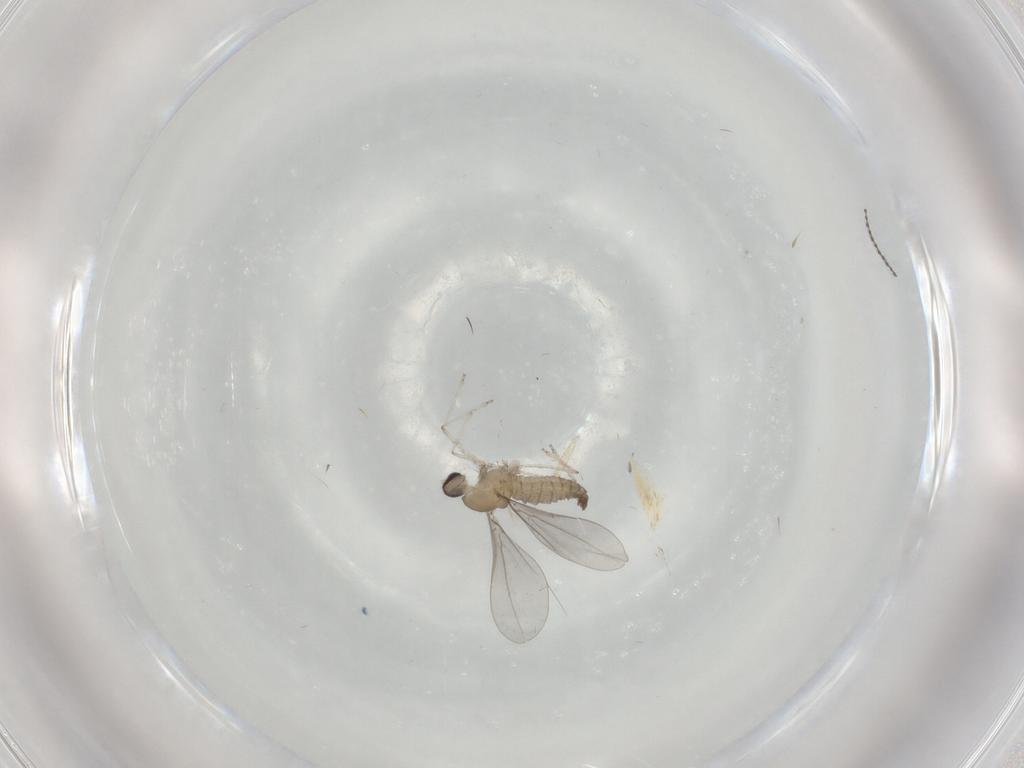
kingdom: Animalia
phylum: Arthropoda
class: Insecta
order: Diptera
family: Chironomidae
